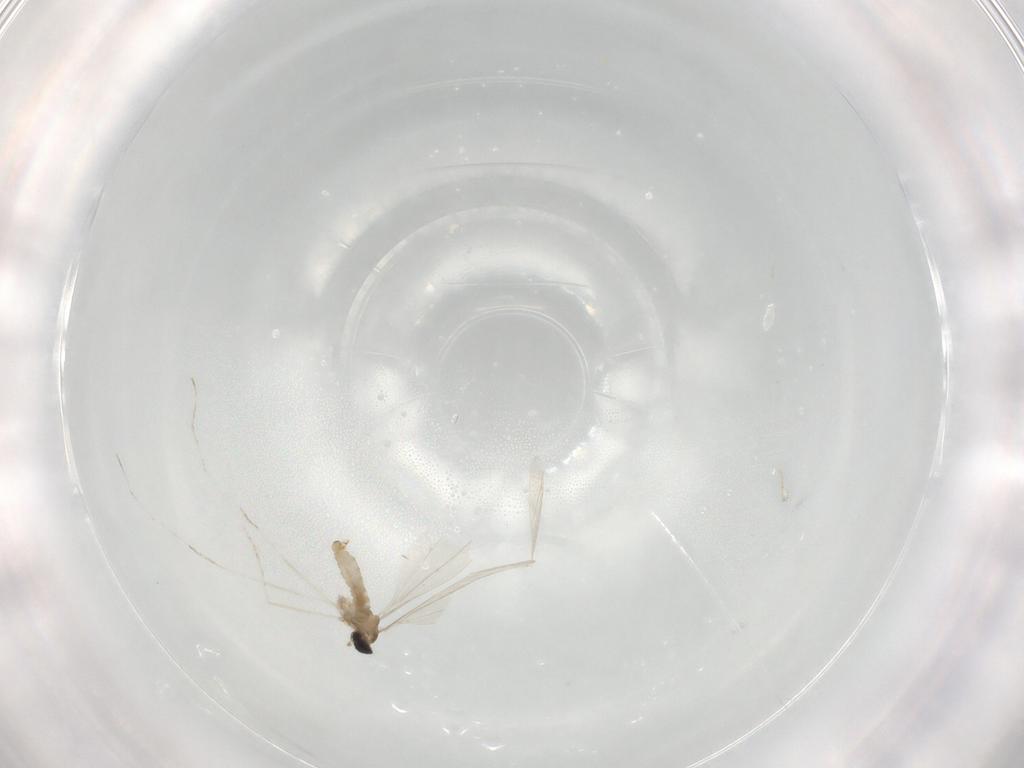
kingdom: Animalia
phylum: Arthropoda
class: Insecta
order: Diptera
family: Cecidomyiidae
